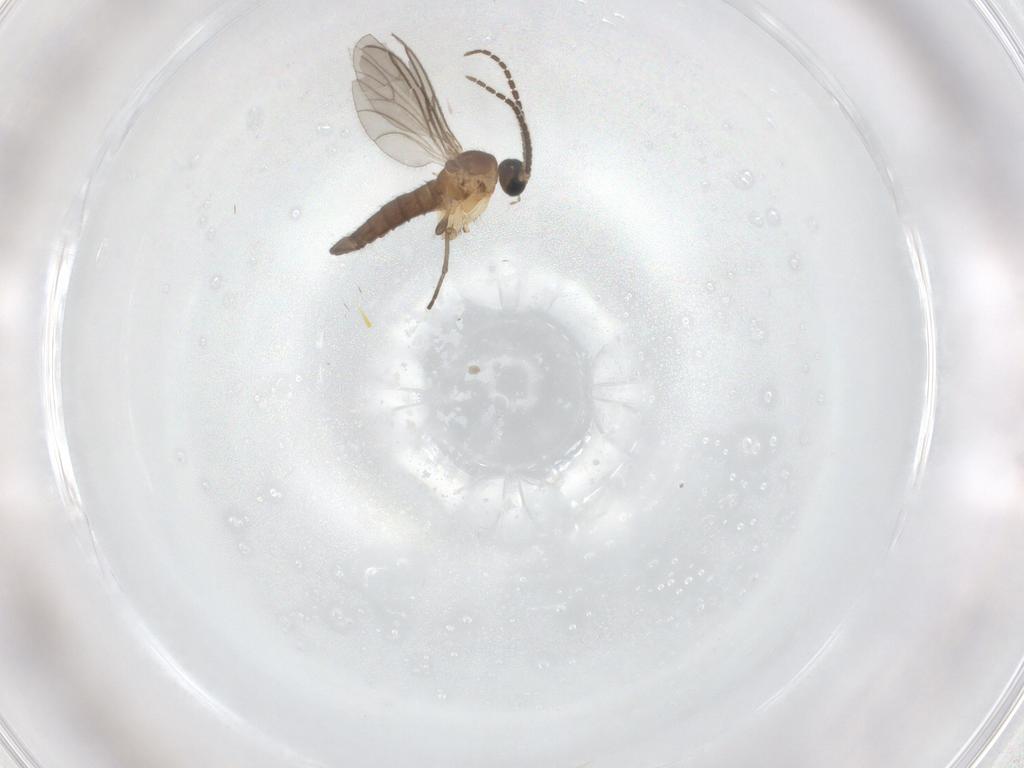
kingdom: Animalia
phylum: Arthropoda
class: Insecta
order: Diptera
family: Sciaridae
